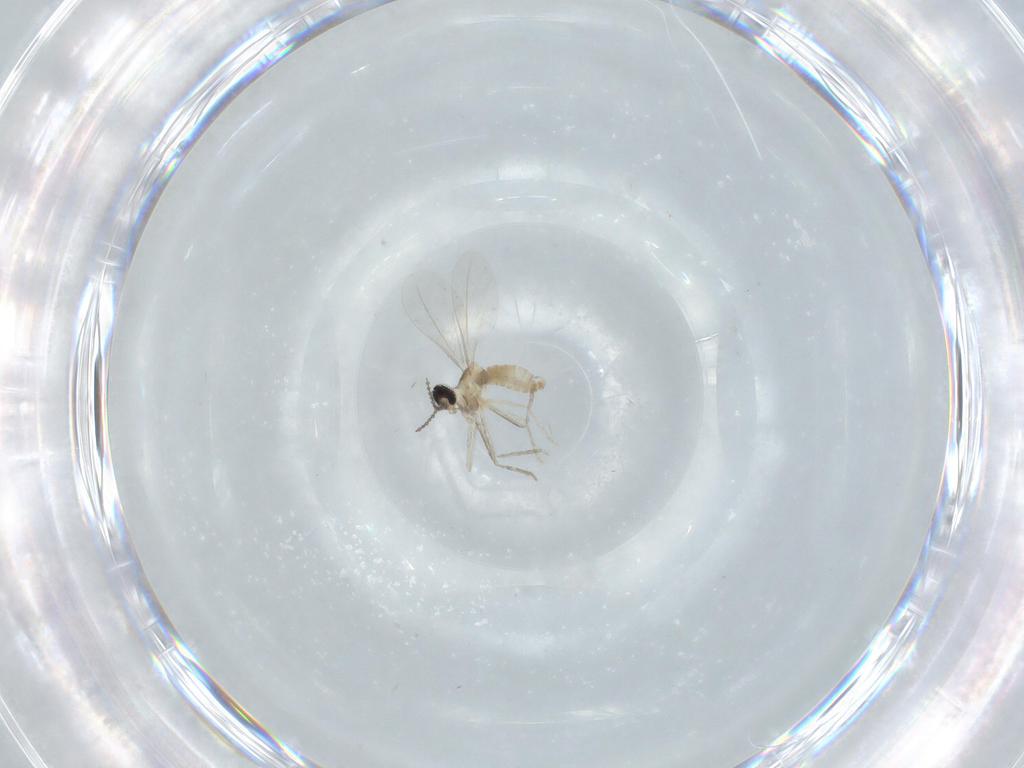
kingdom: Animalia
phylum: Arthropoda
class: Insecta
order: Diptera
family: Cecidomyiidae
